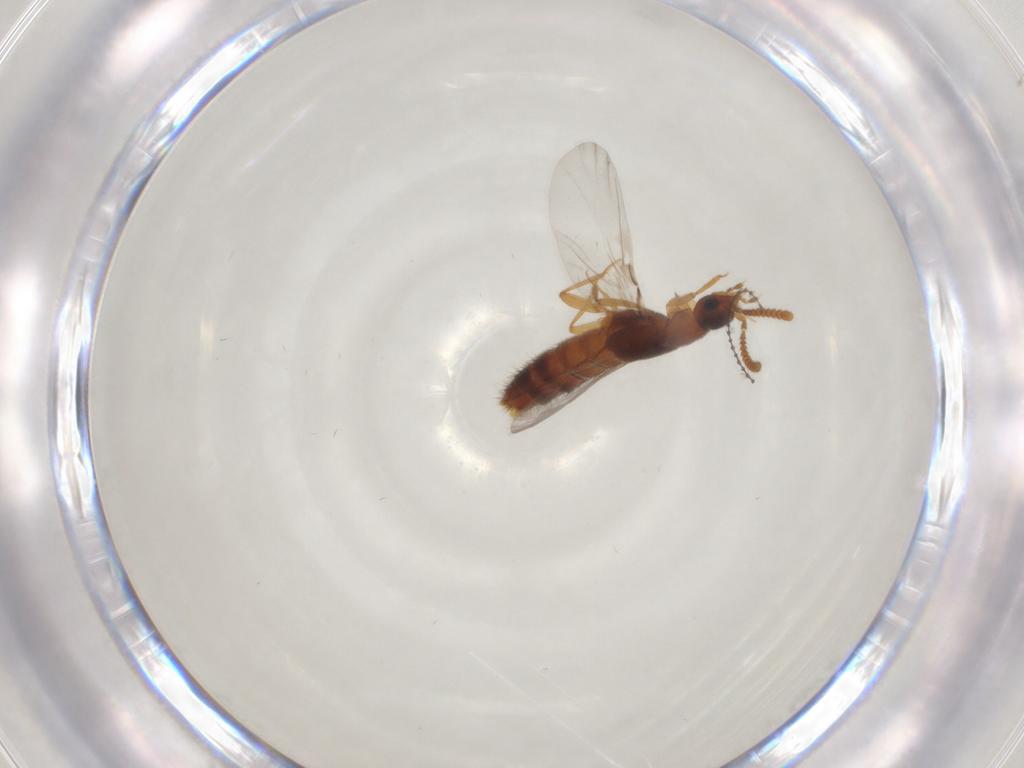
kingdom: Animalia
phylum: Arthropoda
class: Insecta
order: Coleoptera
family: Staphylinidae
